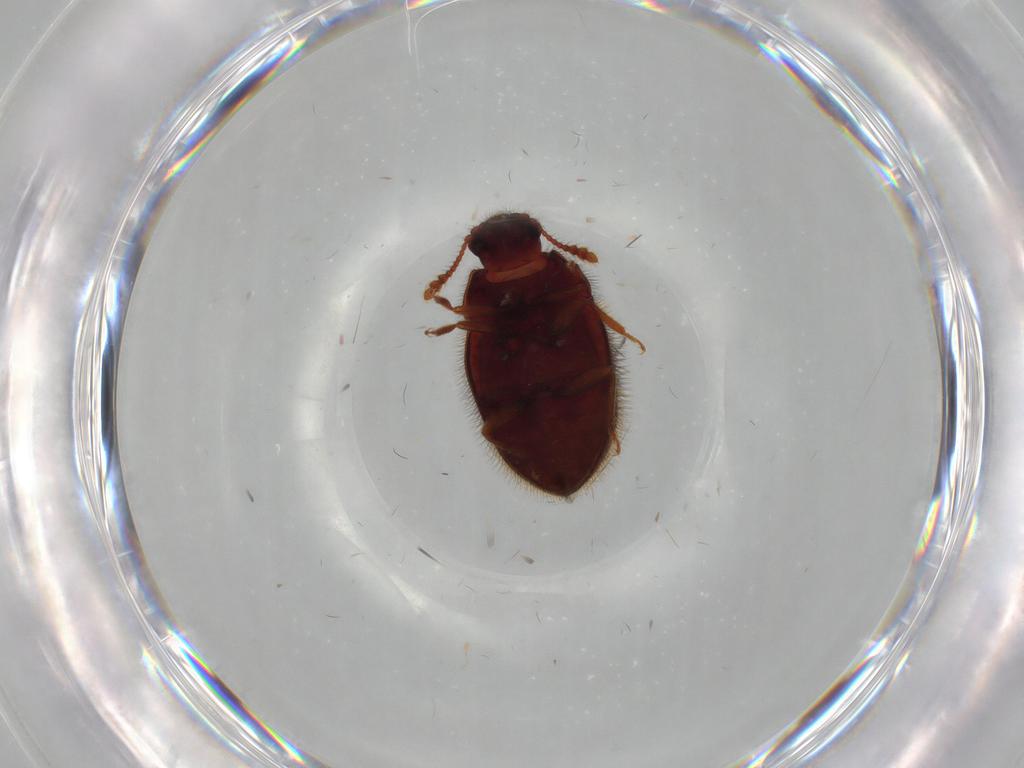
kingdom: Animalia
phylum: Arthropoda
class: Insecta
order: Coleoptera
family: Biphyllidae
